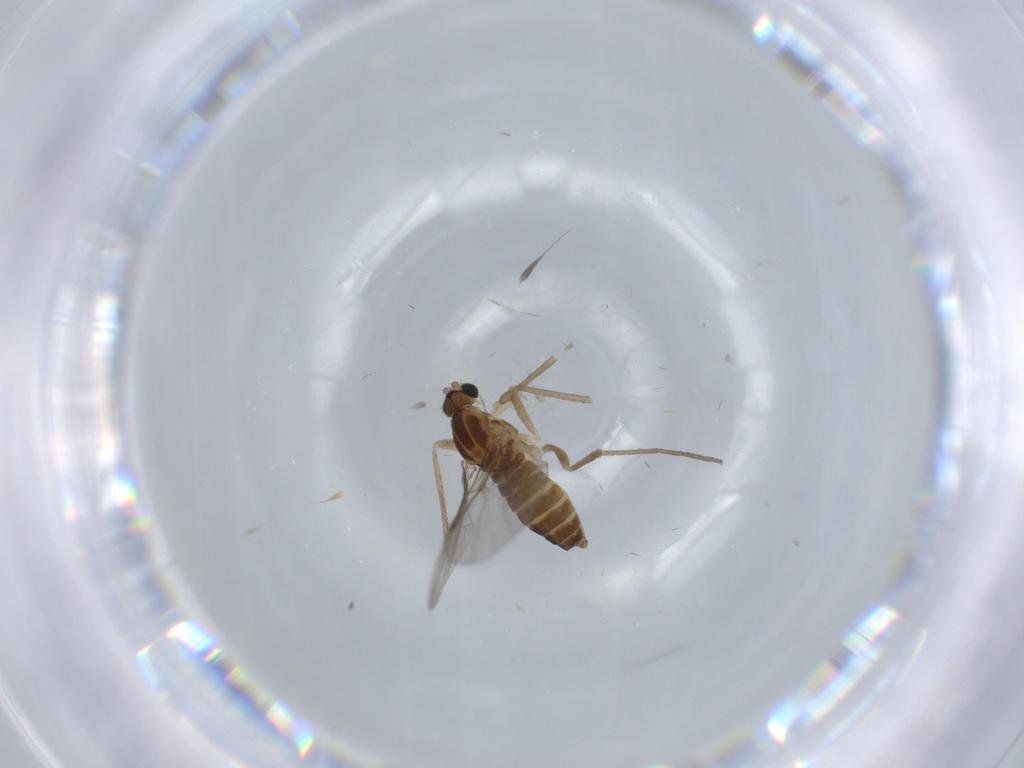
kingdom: Animalia
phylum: Arthropoda
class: Insecta
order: Diptera
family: Cecidomyiidae
